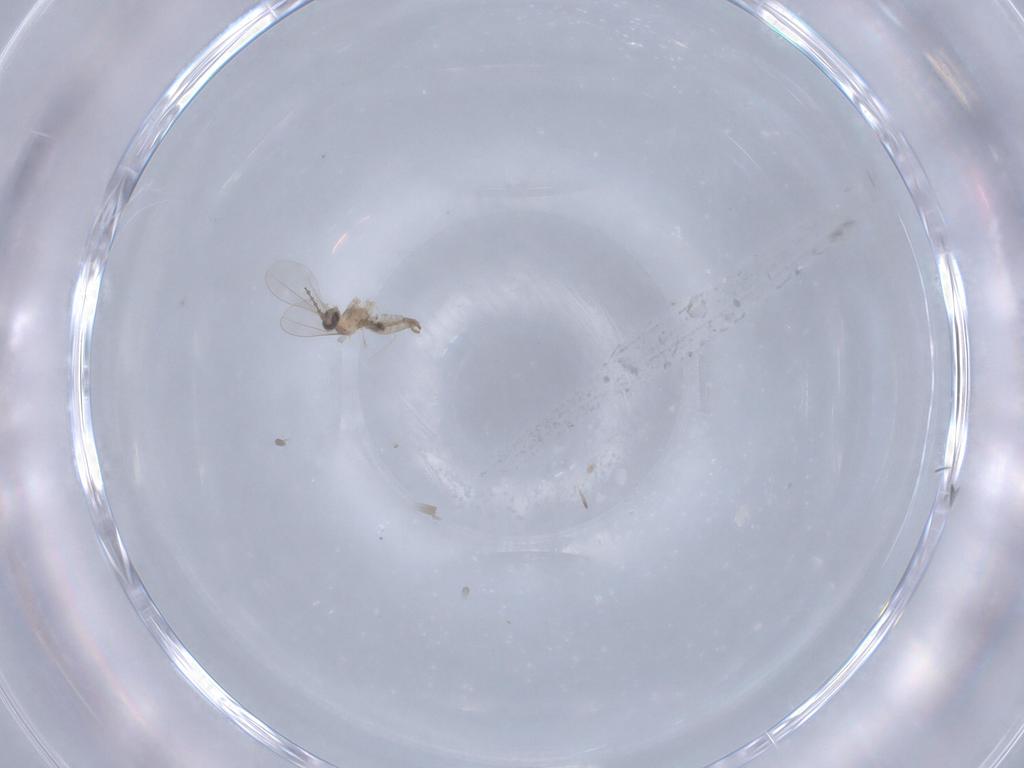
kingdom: Animalia
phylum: Arthropoda
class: Insecta
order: Diptera
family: Cecidomyiidae
